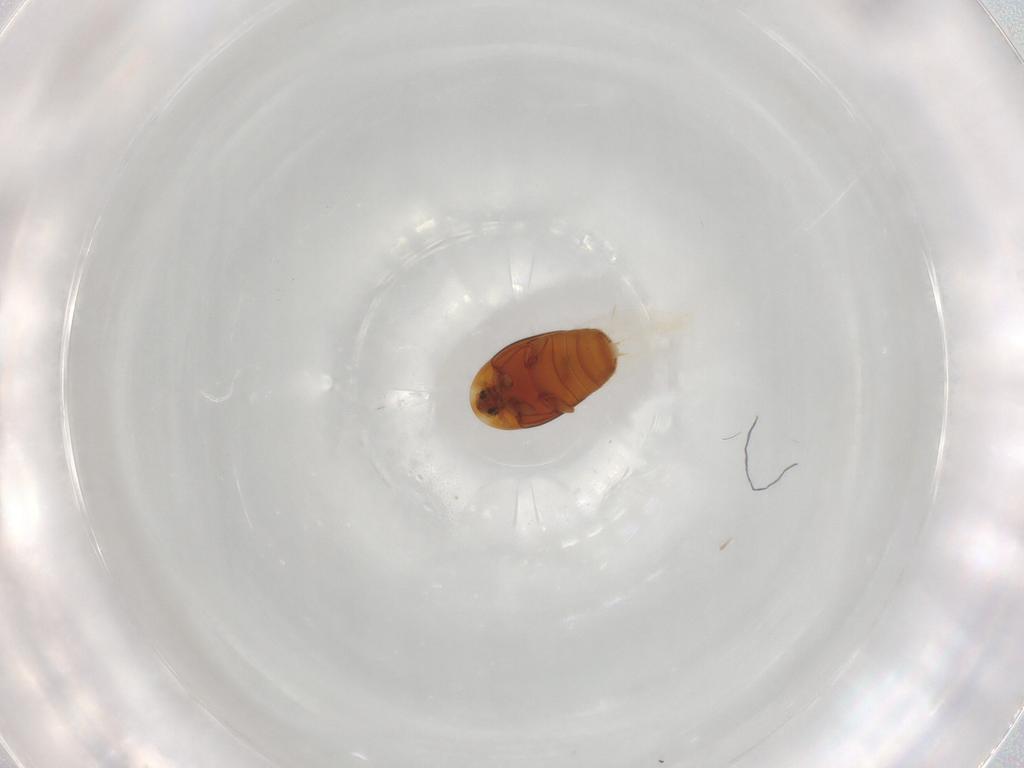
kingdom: Animalia
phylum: Arthropoda
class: Insecta
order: Coleoptera
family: Corylophidae
